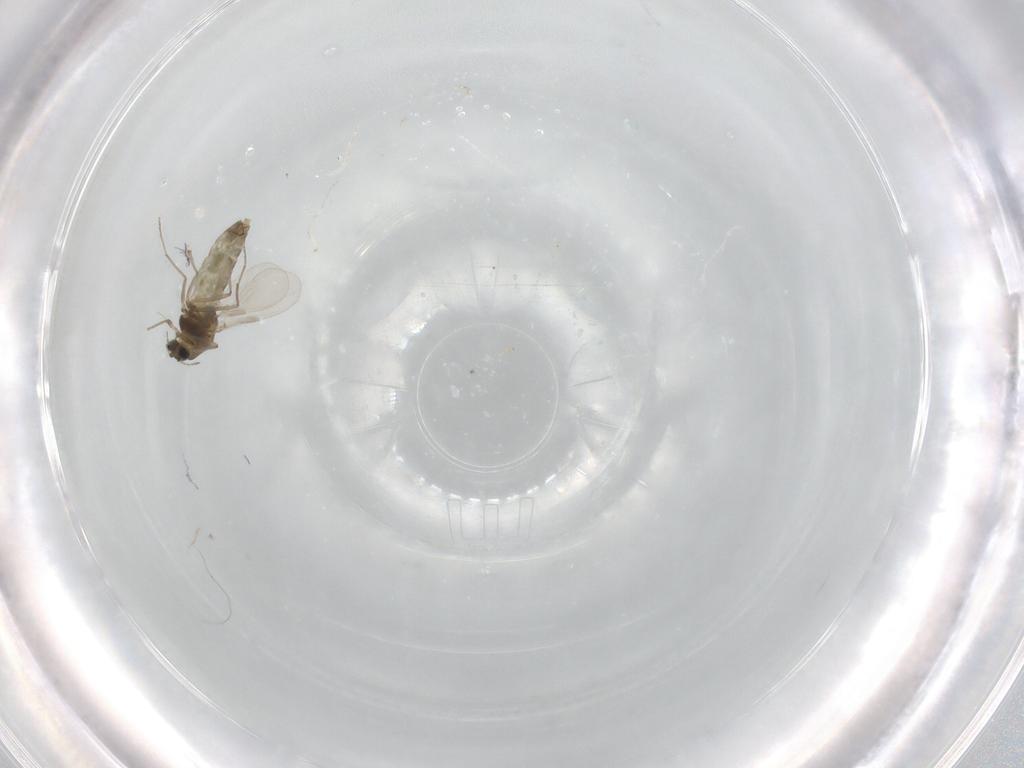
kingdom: Animalia
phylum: Arthropoda
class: Insecta
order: Diptera
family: Chironomidae
